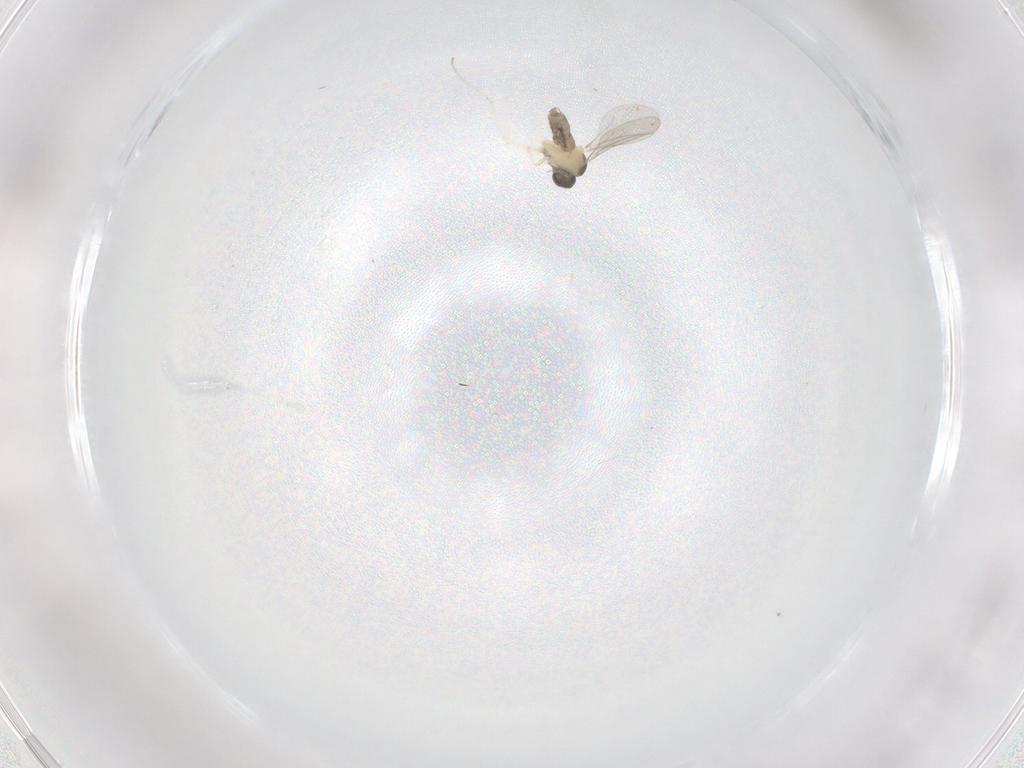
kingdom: Animalia
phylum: Arthropoda
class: Insecta
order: Diptera
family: Cecidomyiidae
